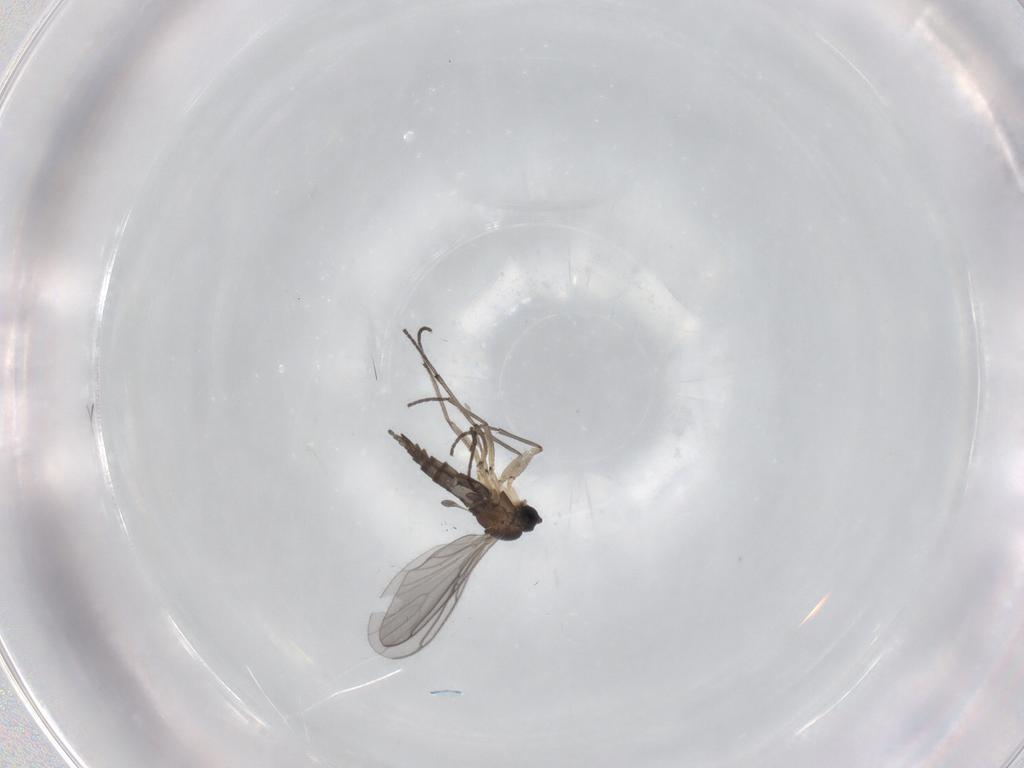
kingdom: Animalia
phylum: Arthropoda
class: Insecta
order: Diptera
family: Sciaridae
